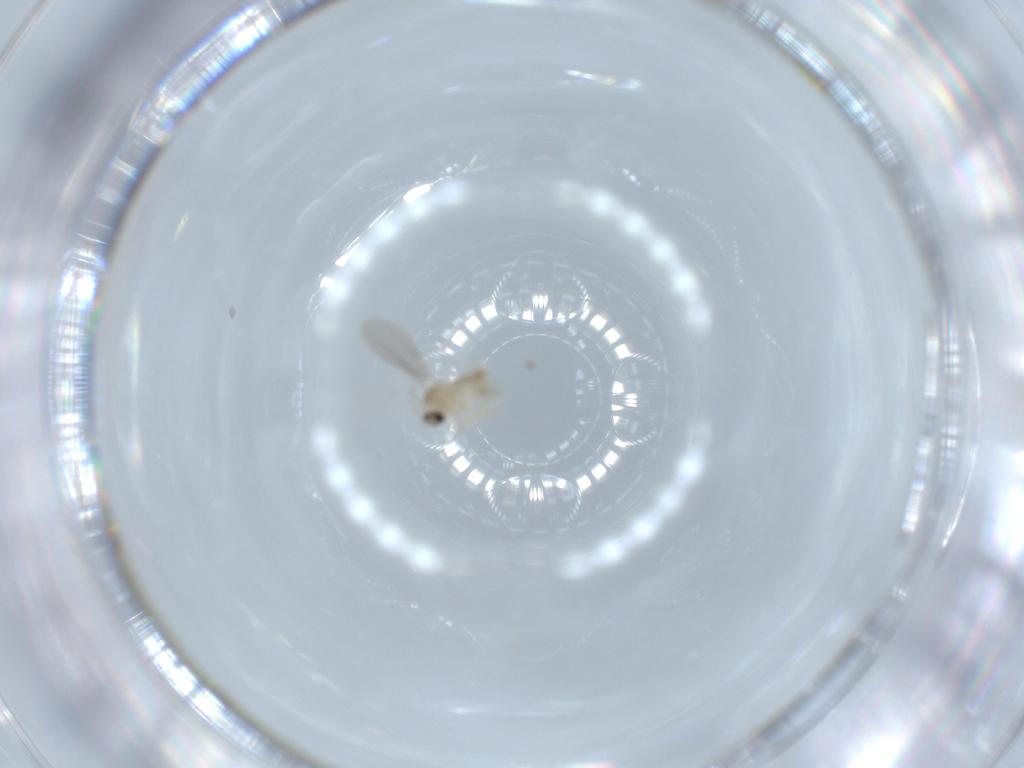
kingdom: Animalia
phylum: Arthropoda
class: Insecta
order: Diptera
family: Cecidomyiidae
